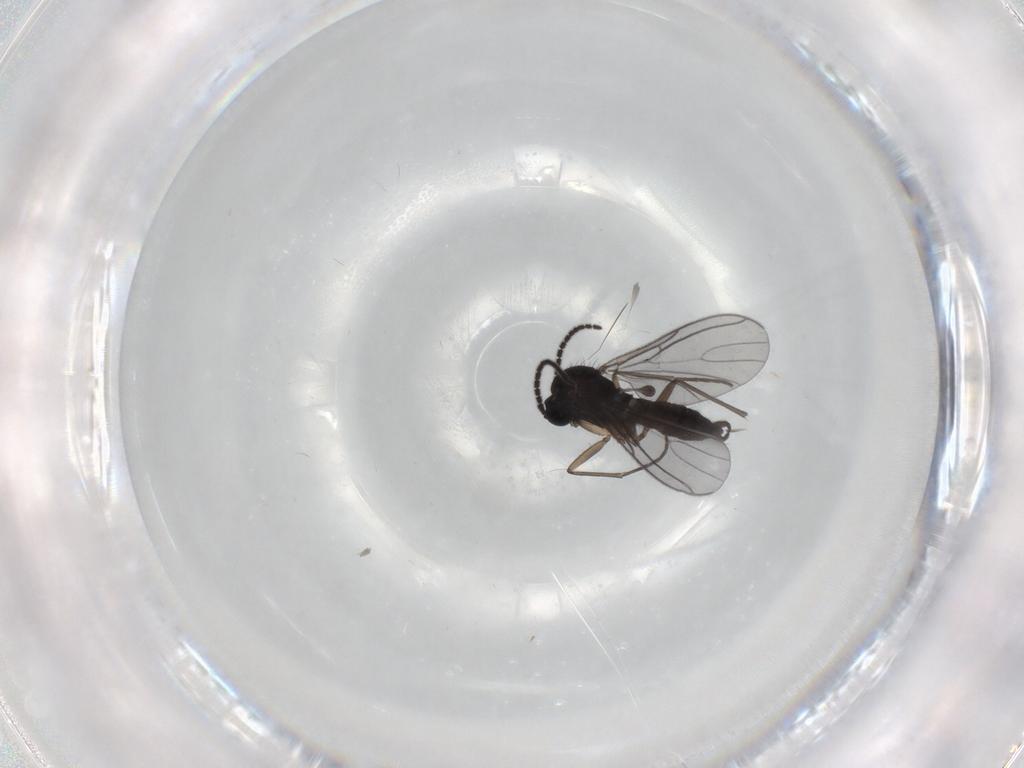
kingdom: Animalia
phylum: Arthropoda
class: Insecta
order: Diptera
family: Sciaridae
